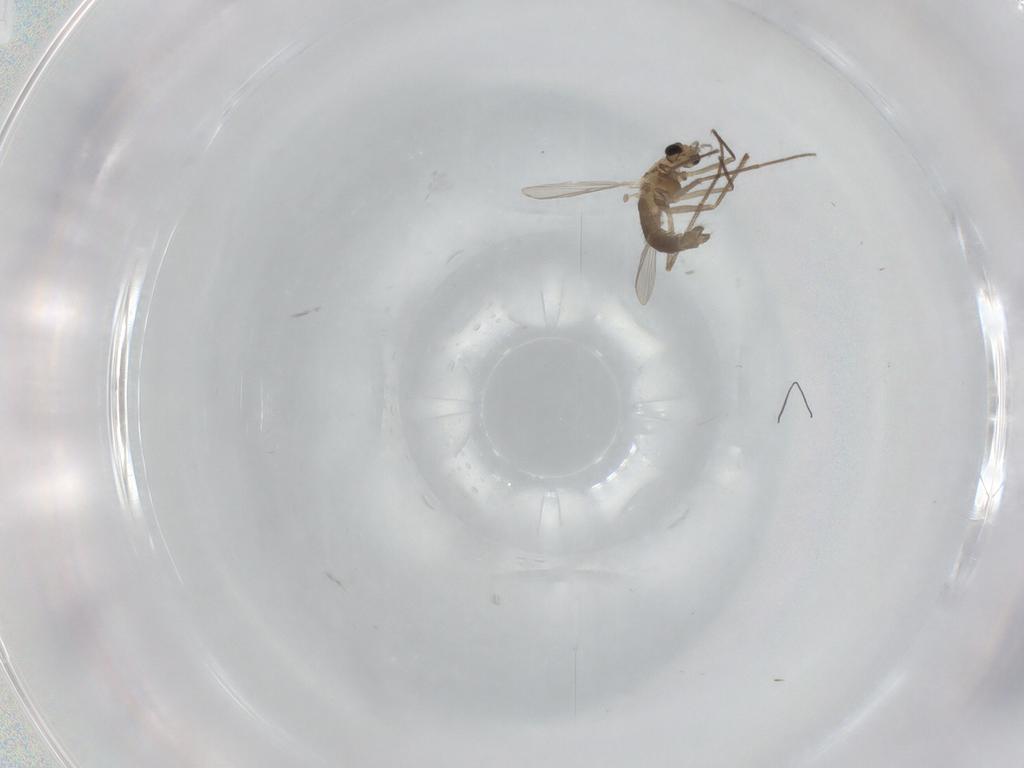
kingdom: Animalia
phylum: Arthropoda
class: Insecta
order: Diptera
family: Chironomidae
